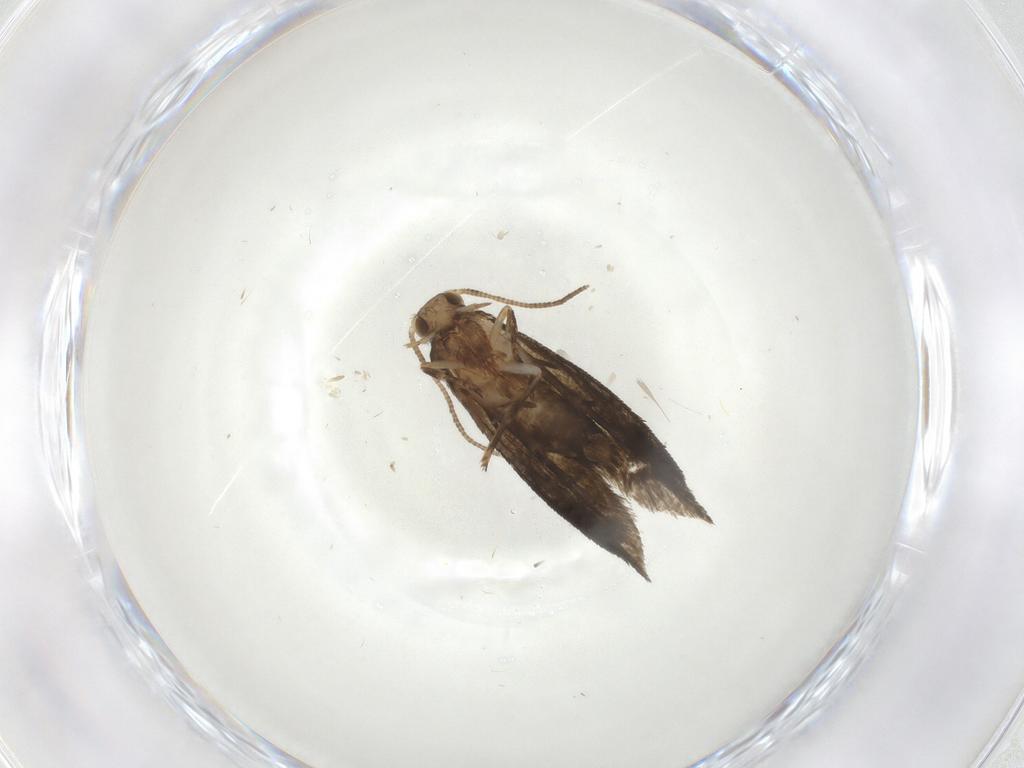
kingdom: Animalia
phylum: Arthropoda
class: Insecta
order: Lepidoptera
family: Tineidae
